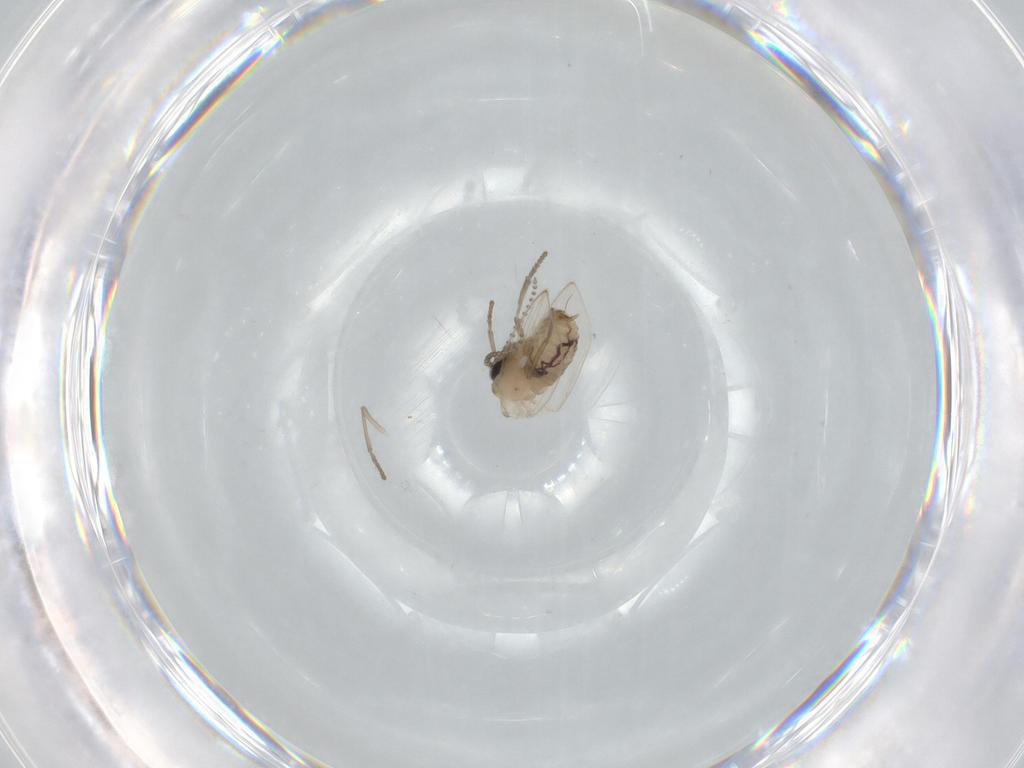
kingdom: Animalia
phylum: Arthropoda
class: Insecta
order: Diptera
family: Psychodidae
